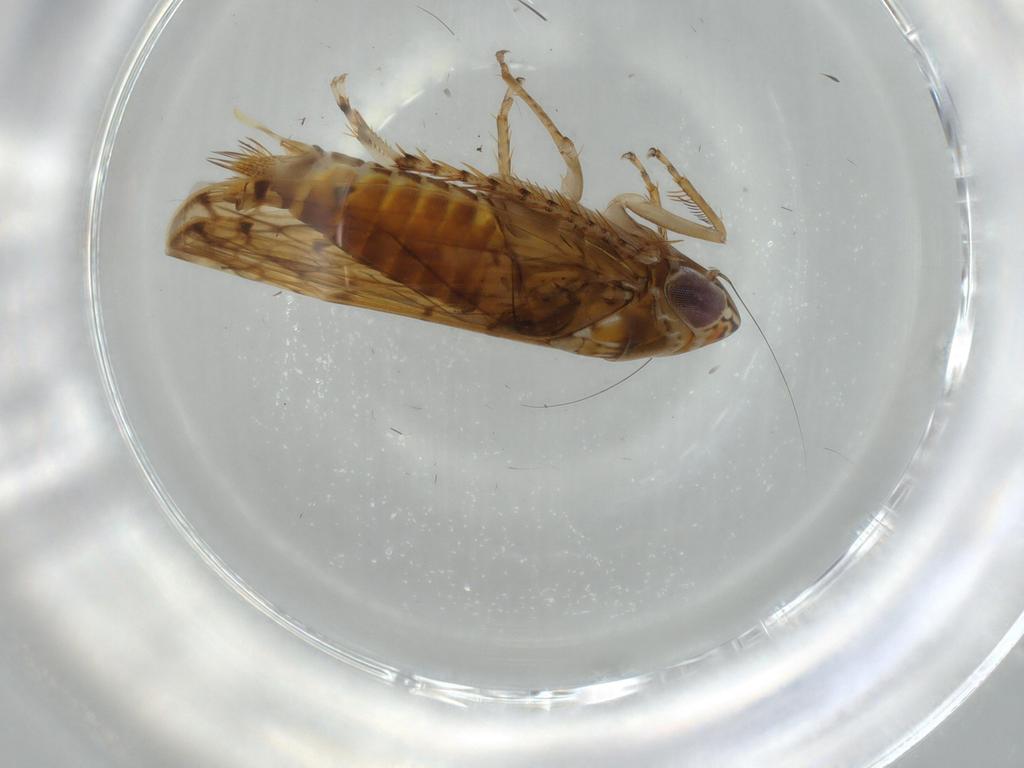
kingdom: Animalia
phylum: Arthropoda
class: Insecta
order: Hemiptera
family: Cicadellidae
